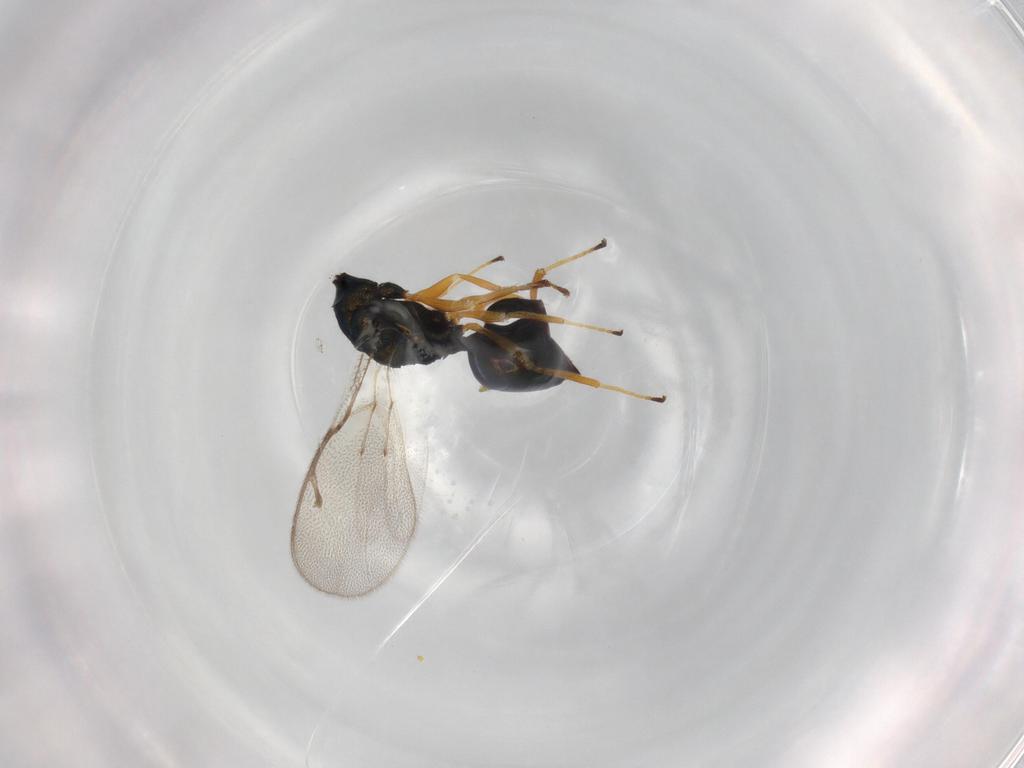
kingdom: Animalia
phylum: Arthropoda
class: Insecta
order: Hymenoptera
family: Pteromalidae
